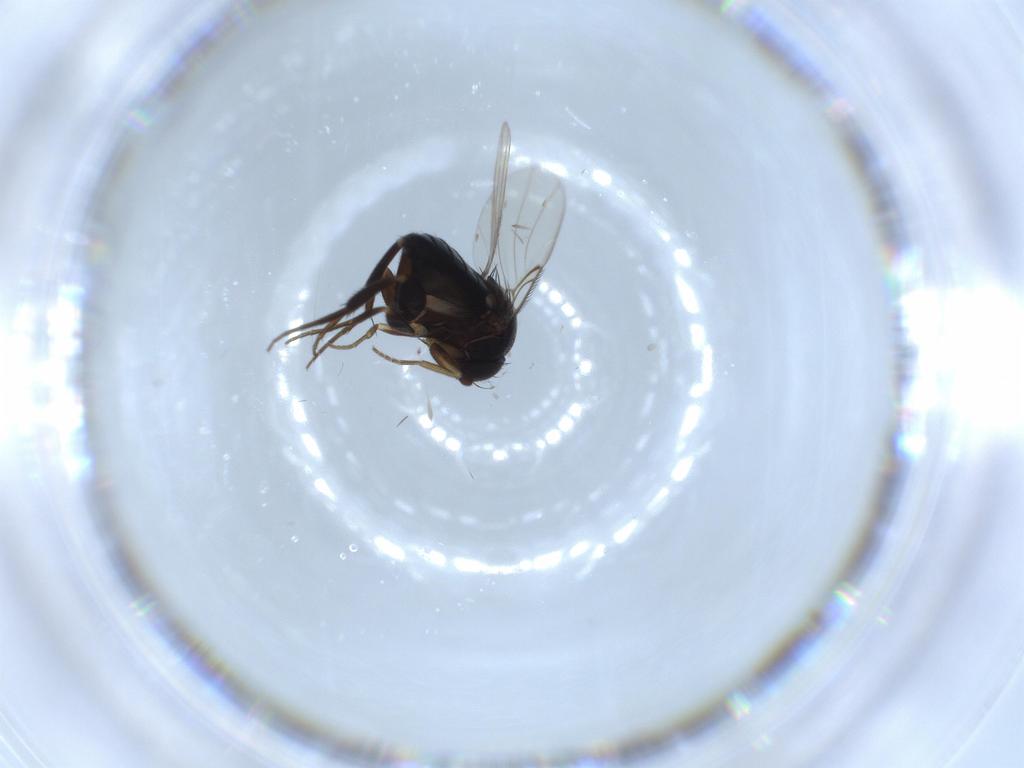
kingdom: Animalia
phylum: Arthropoda
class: Insecta
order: Diptera
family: Phoridae
